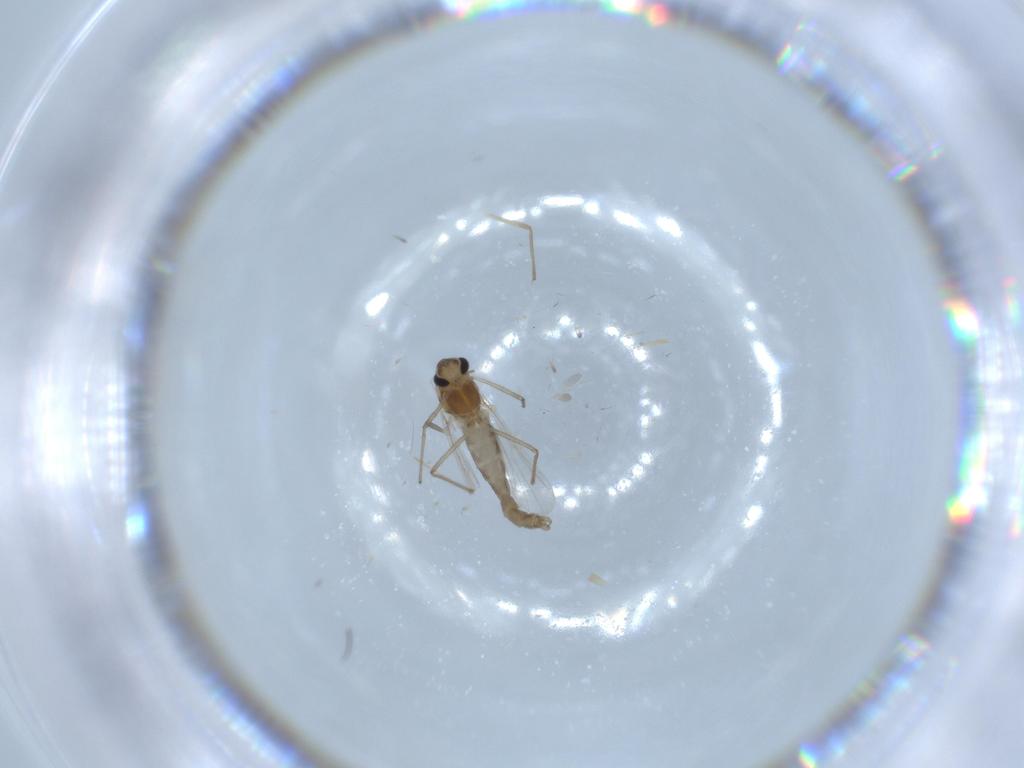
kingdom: Animalia
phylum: Arthropoda
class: Insecta
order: Diptera
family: Chironomidae
